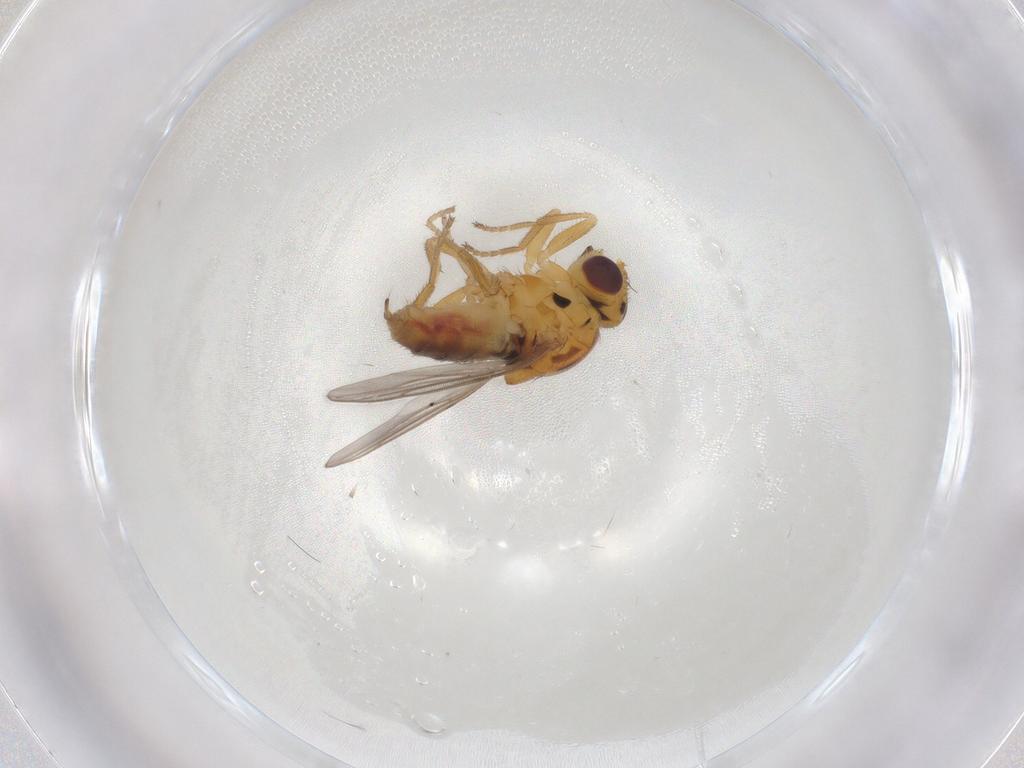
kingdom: Animalia
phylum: Arthropoda
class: Insecta
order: Diptera
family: Chloropidae
